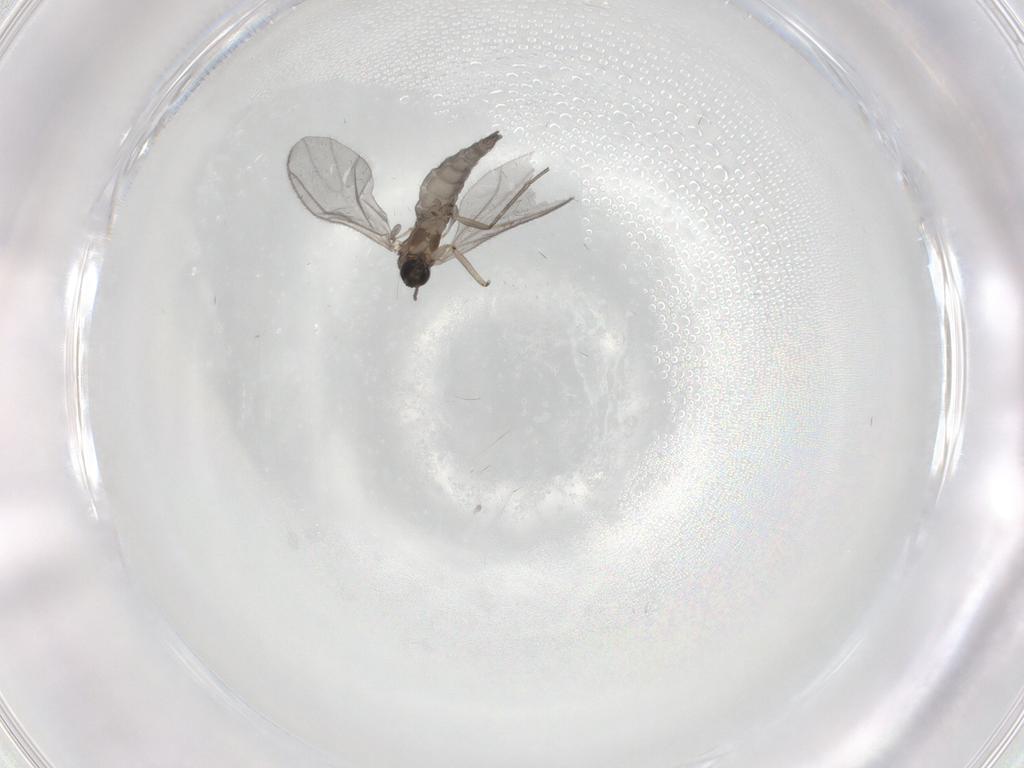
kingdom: Animalia
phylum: Arthropoda
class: Insecta
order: Diptera
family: Sciaridae
